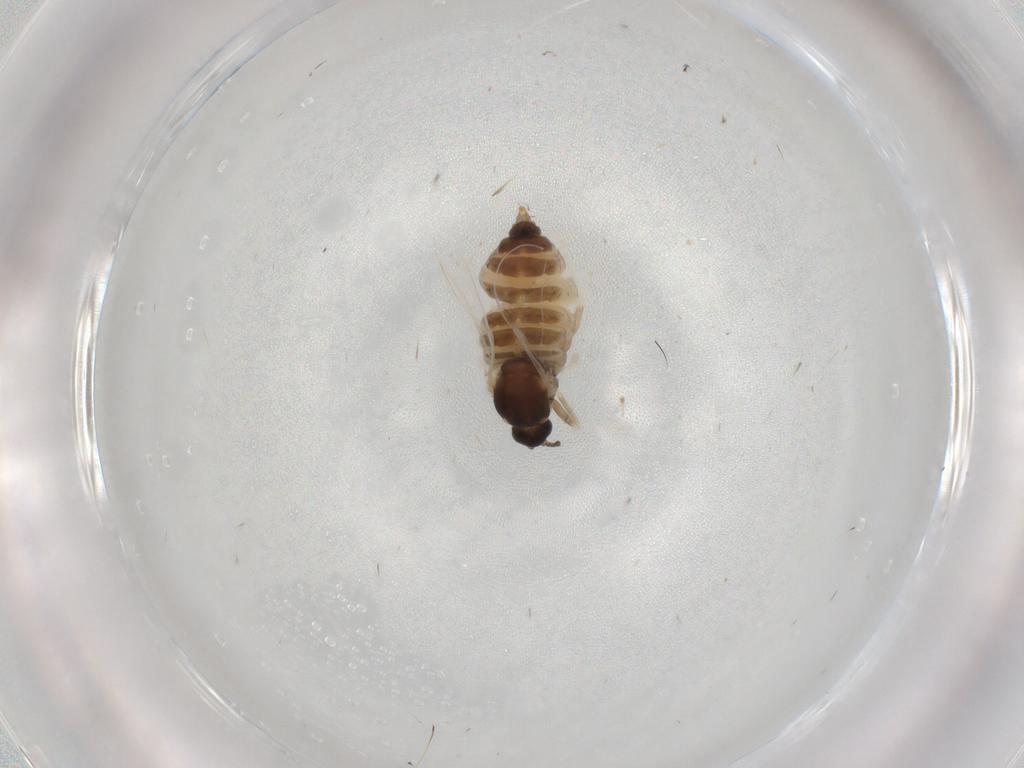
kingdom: Animalia
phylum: Arthropoda
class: Insecta
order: Diptera
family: Cecidomyiidae
